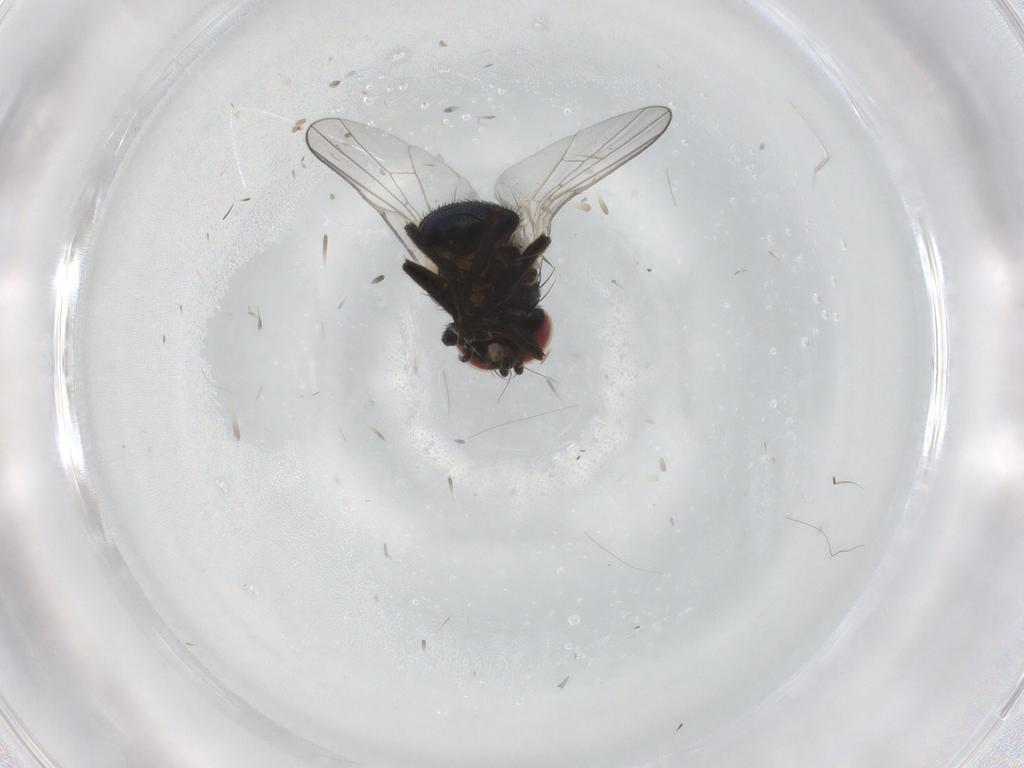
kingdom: Animalia
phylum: Arthropoda
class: Insecta
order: Diptera
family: Agromyzidae
